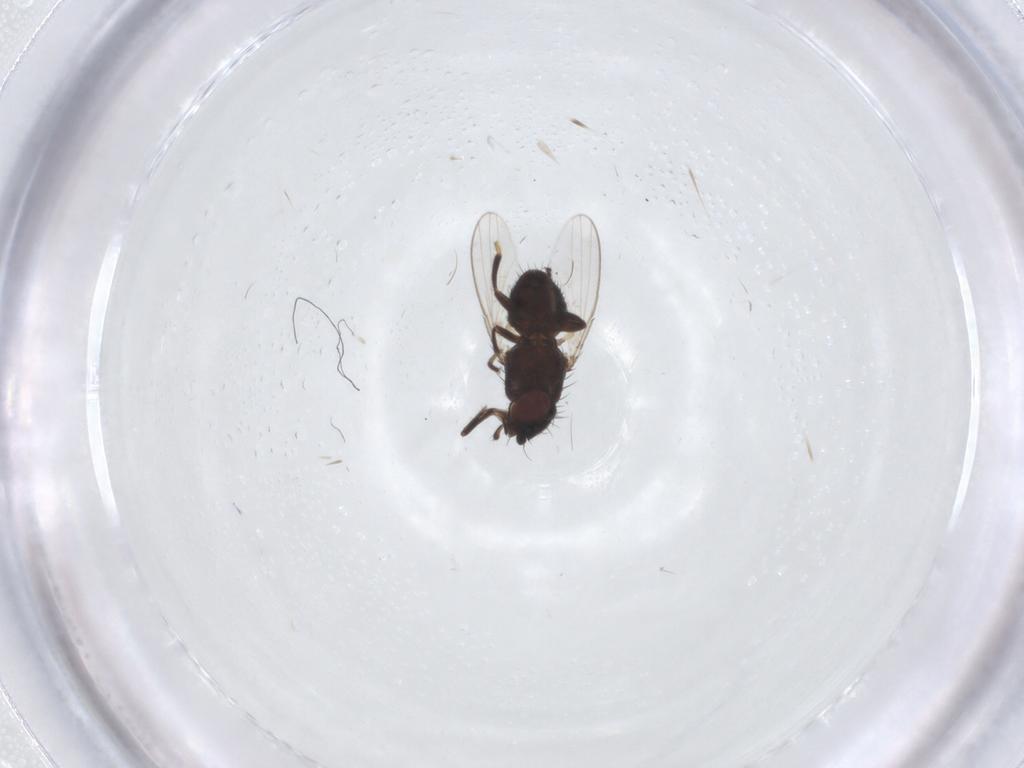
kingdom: Animalia
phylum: Arthropoda
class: Insecta
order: Diptera
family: Milichiidae
